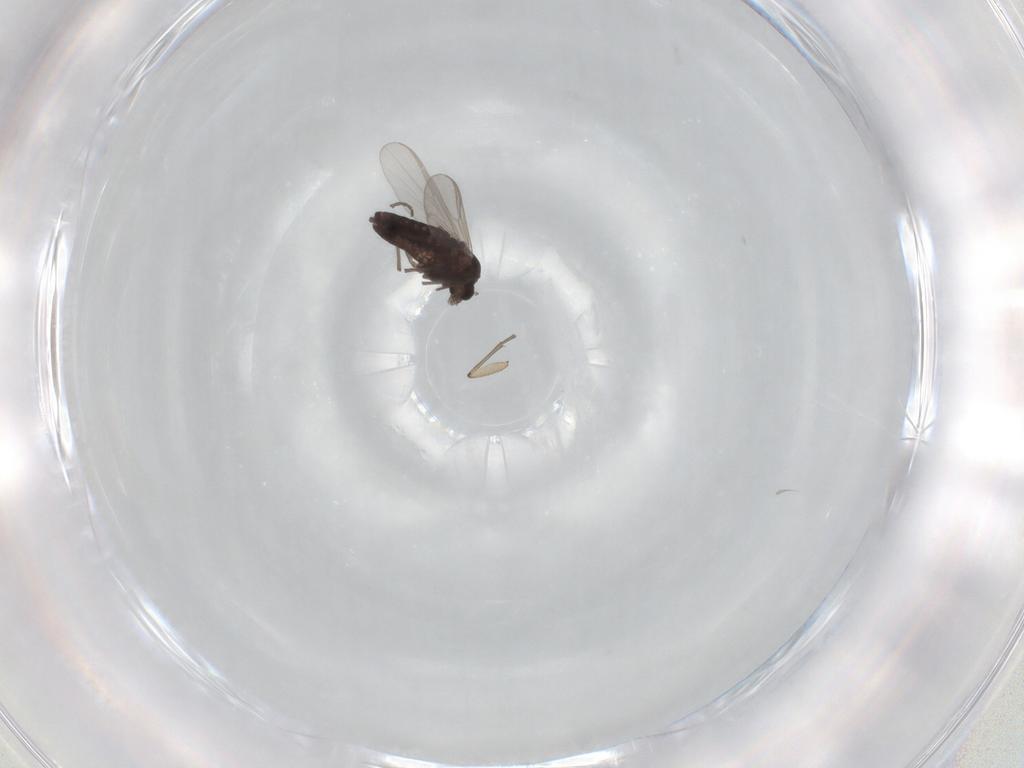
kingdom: Animalia
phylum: Arthropoda
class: Insecta
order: Diptera
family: Chironomidae
